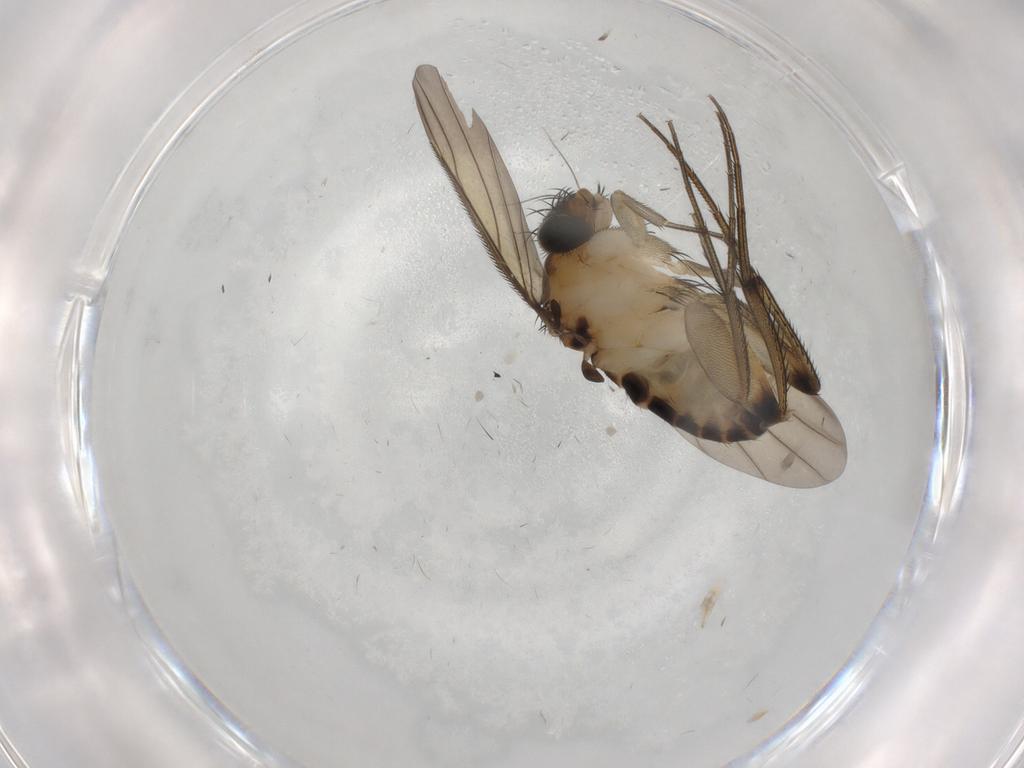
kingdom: Animalia
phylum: Arthropoda
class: Insecta
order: Diptera
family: Phoridae
